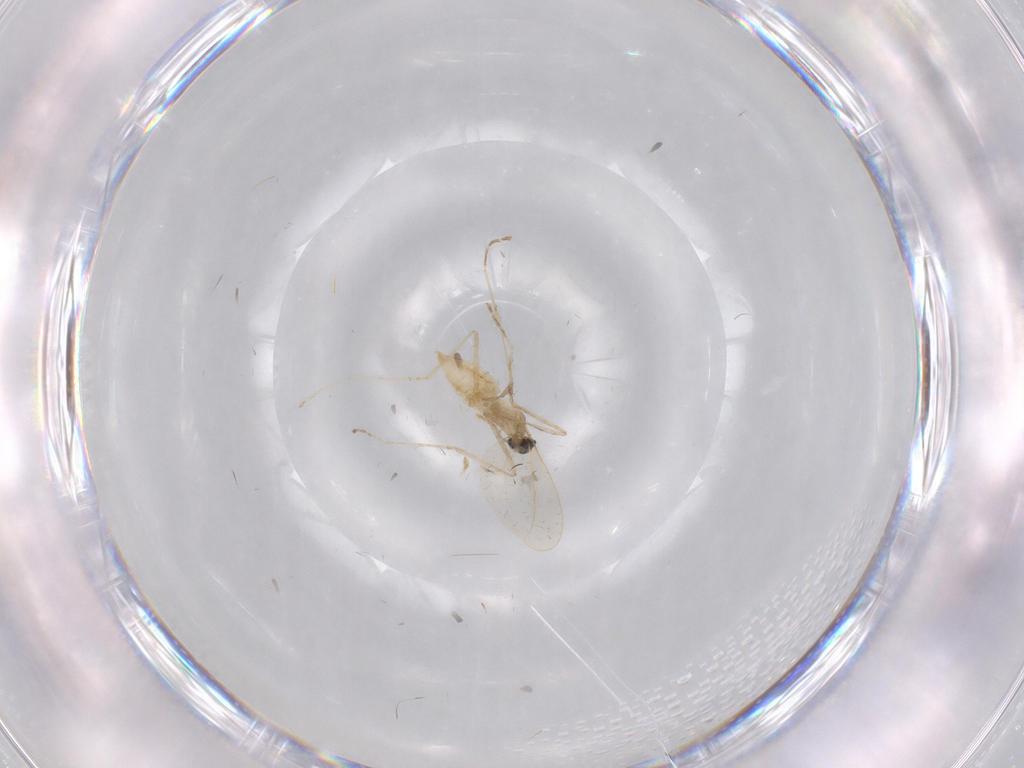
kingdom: Animalia
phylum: Arthropoda
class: Insecta
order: Diptera
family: Cecidomyiidae
